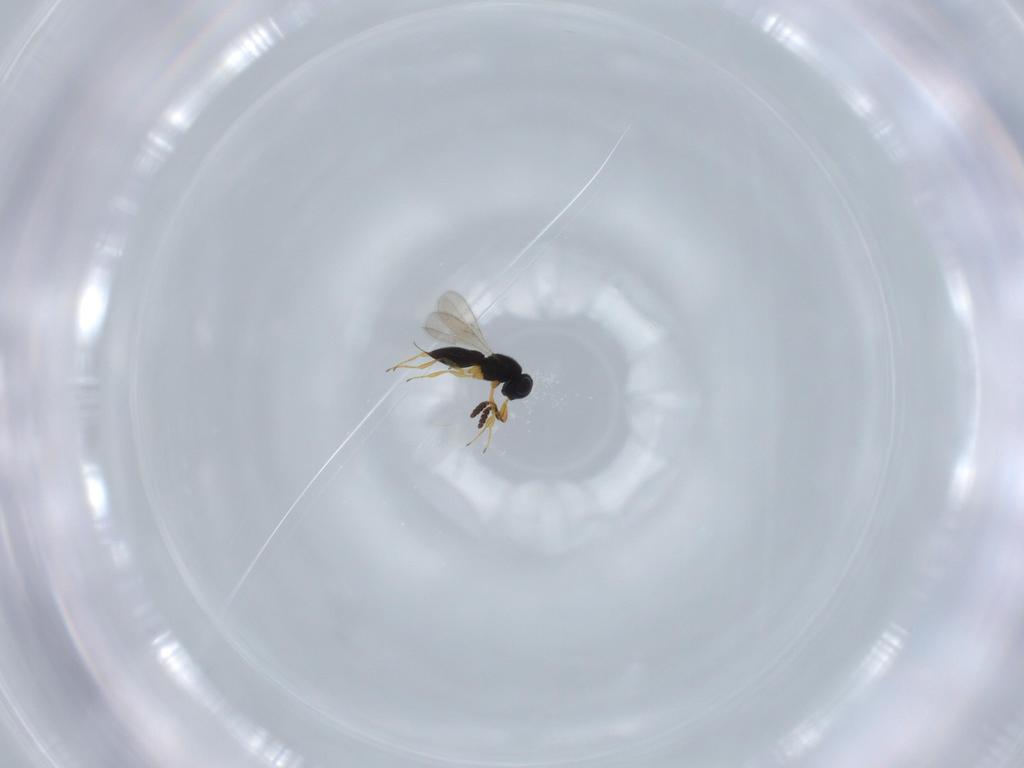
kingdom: Animalia
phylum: Arthropoda
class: Insecta
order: Hymenoptera
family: Scelionidae
